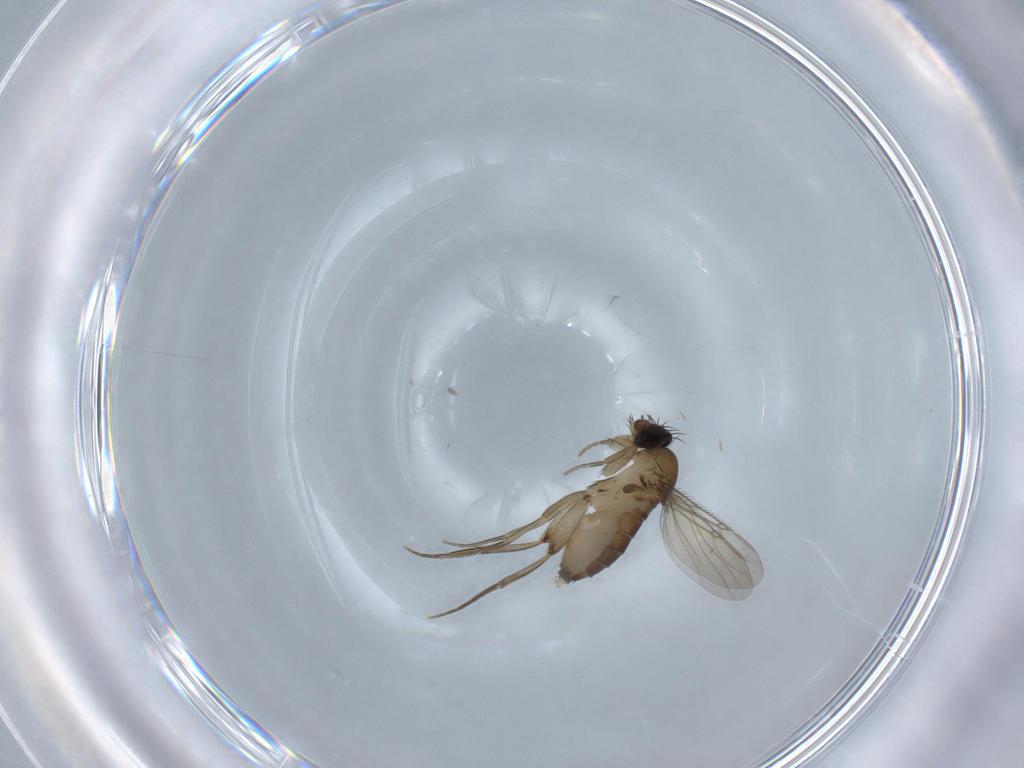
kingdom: Animalia
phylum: Arthropoda
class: Insecta
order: Diptera
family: Phoridae
